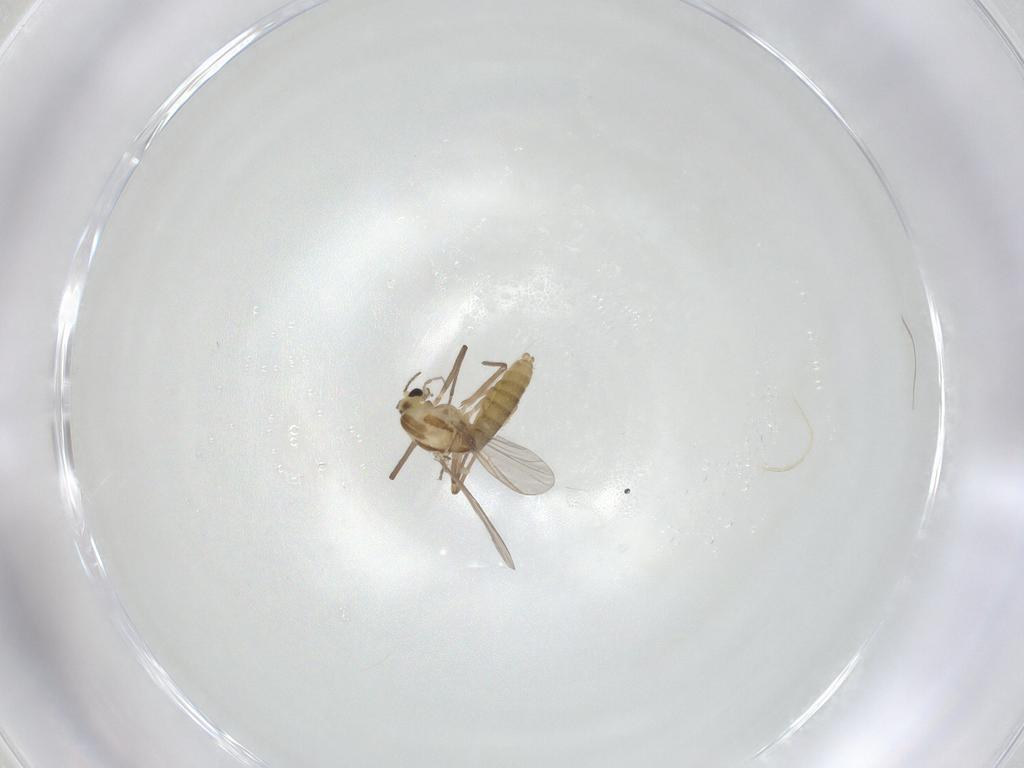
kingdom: Animalia
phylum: Arthropoda
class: Insecta
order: Diptera
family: Chironomidae
